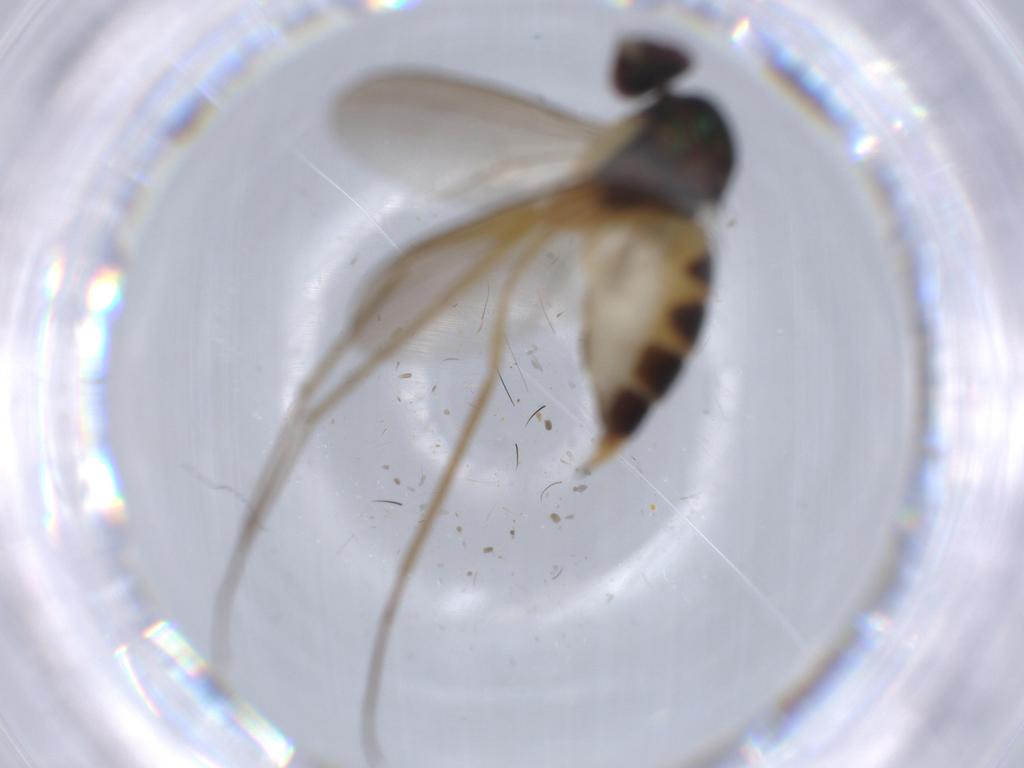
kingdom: Animalia
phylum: Arthropoda
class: Insecta
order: Diptera
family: Dolichopodidae
